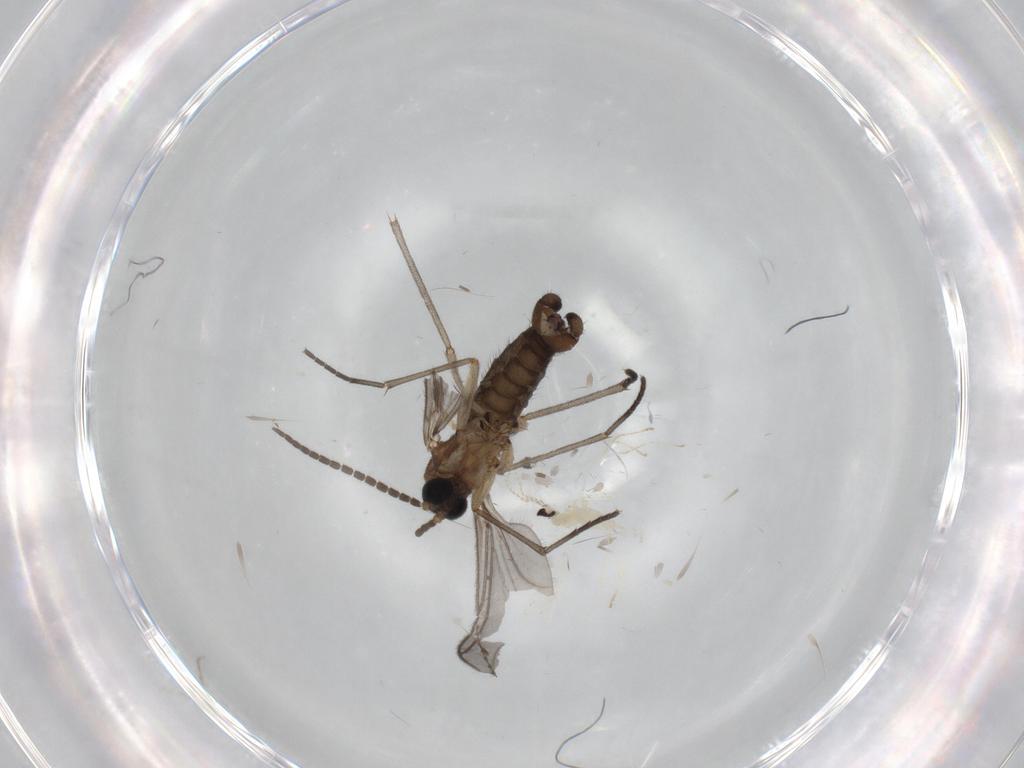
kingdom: Animalia
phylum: Arthropoda
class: Insecta
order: Diptera
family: Sciaridae
